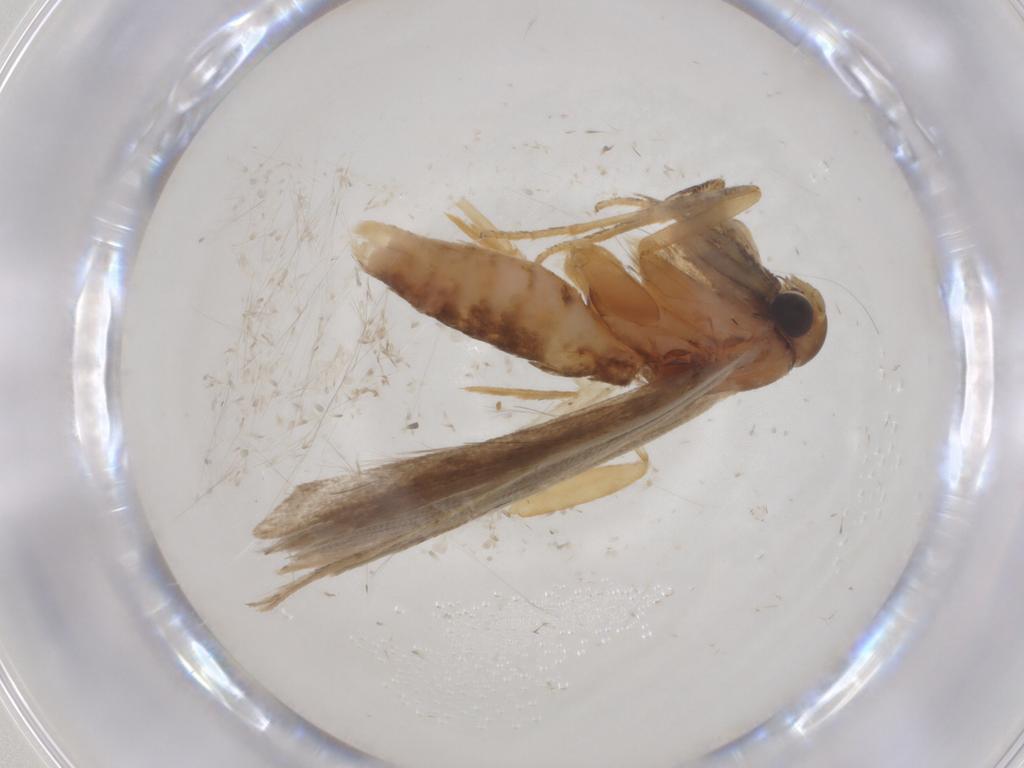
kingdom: Animalia
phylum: Arthropoda
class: Insecta
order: Lepidoptera
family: Gelechiidae
